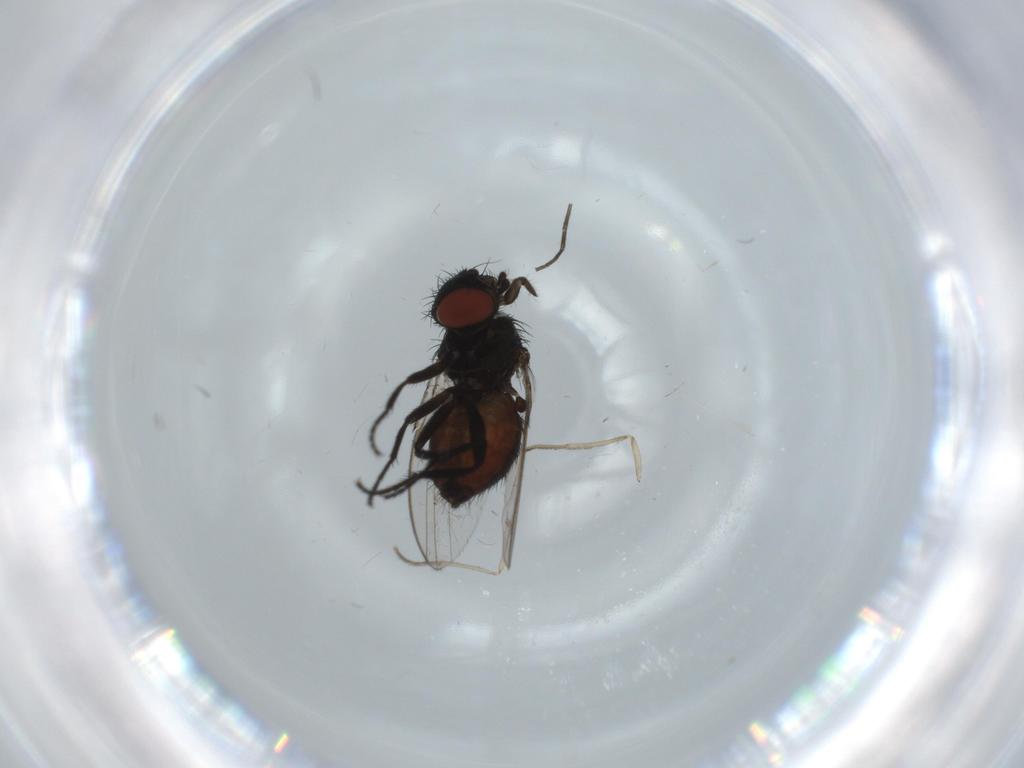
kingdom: Animalia
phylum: Arthropoda
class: Insecta
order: Diptera
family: Milichiidae
